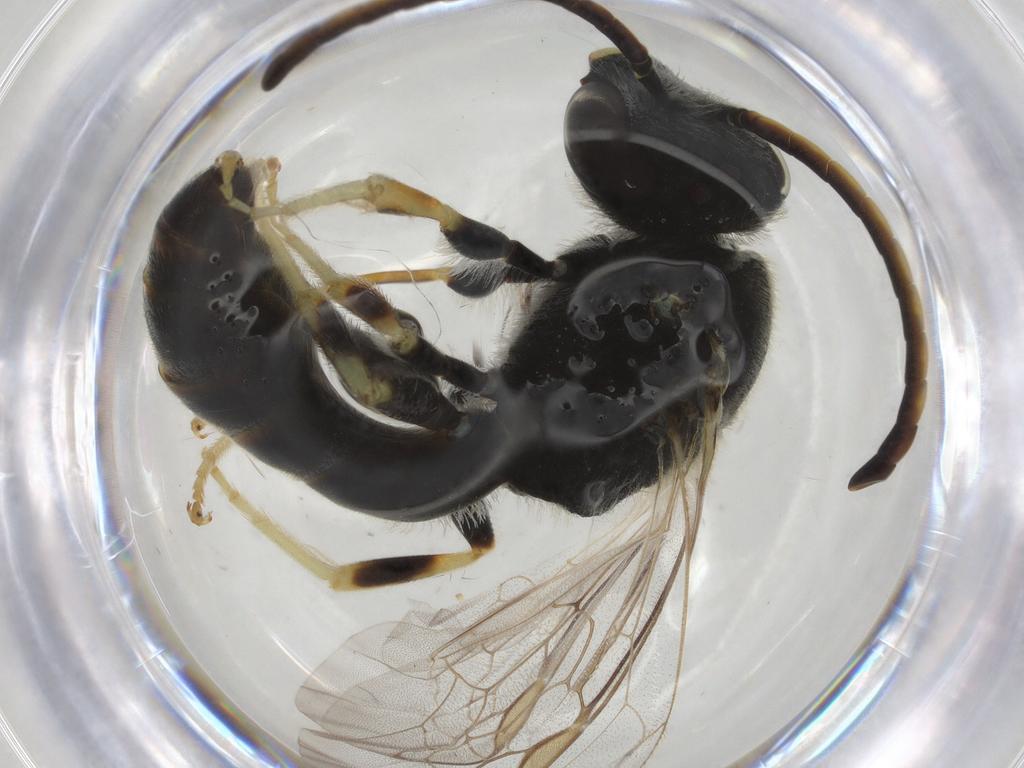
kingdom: Animalia
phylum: Arthropoda
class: Insecta
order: Hymenoptera
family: Scelionidae
